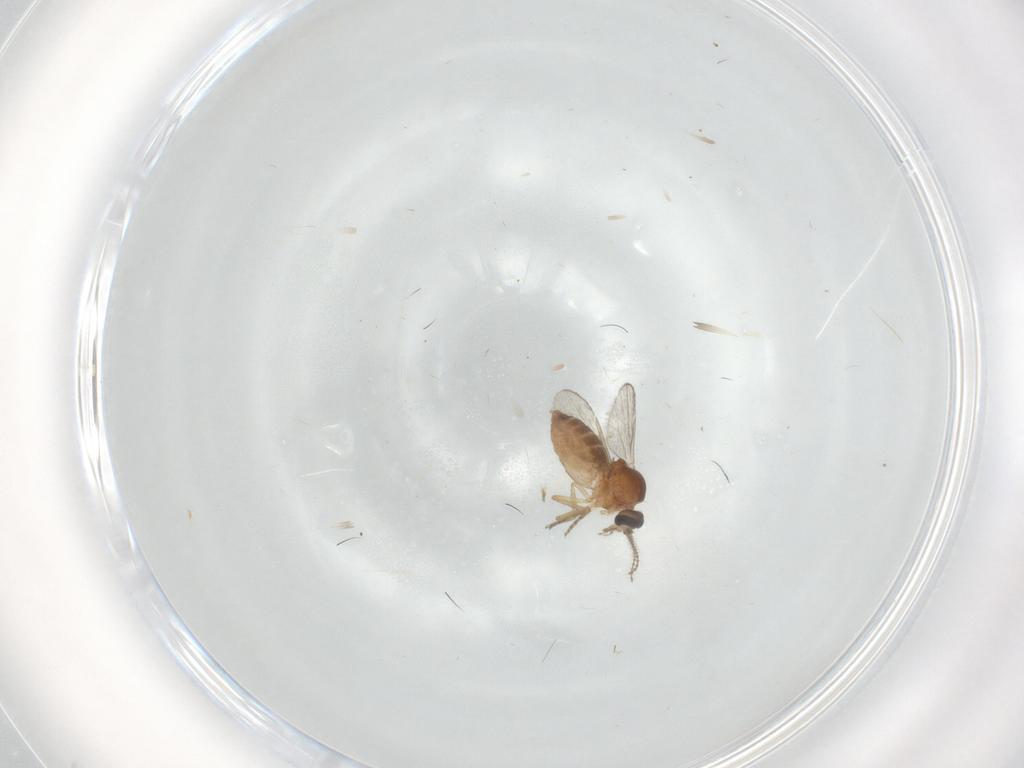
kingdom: Animalia
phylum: Arthropoda
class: Insecta
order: Diptera
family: Ceratopogonidae
